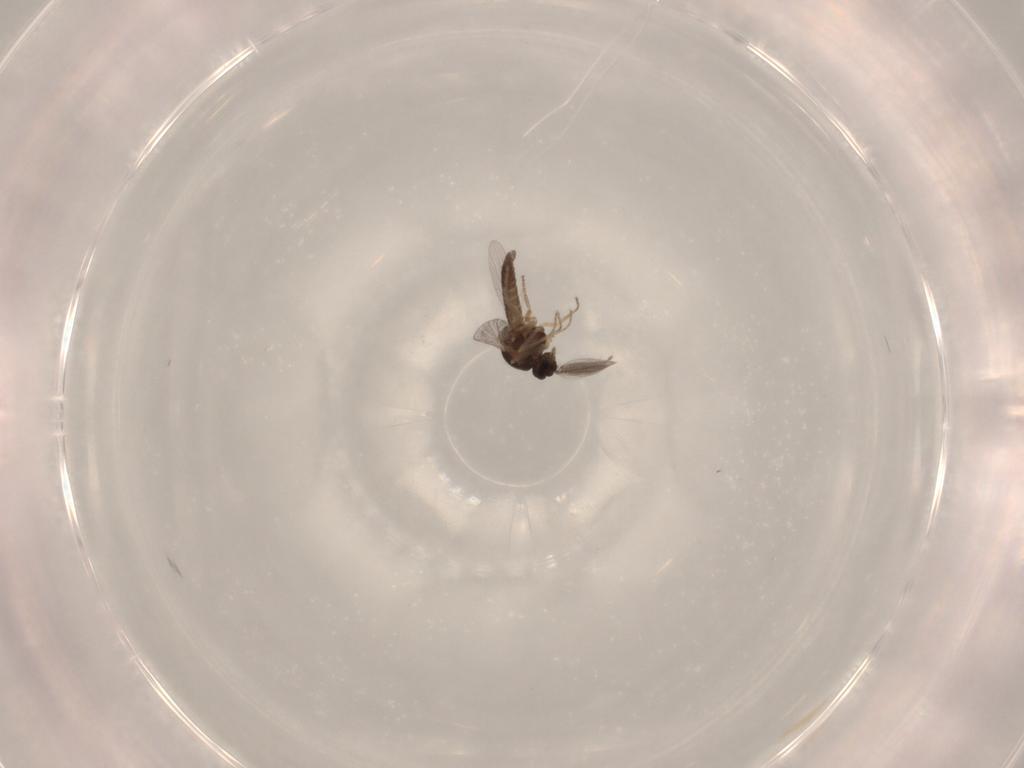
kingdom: Animalia
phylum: Arthropoda
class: Insecta
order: Diptera
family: Ceratopogonidae
